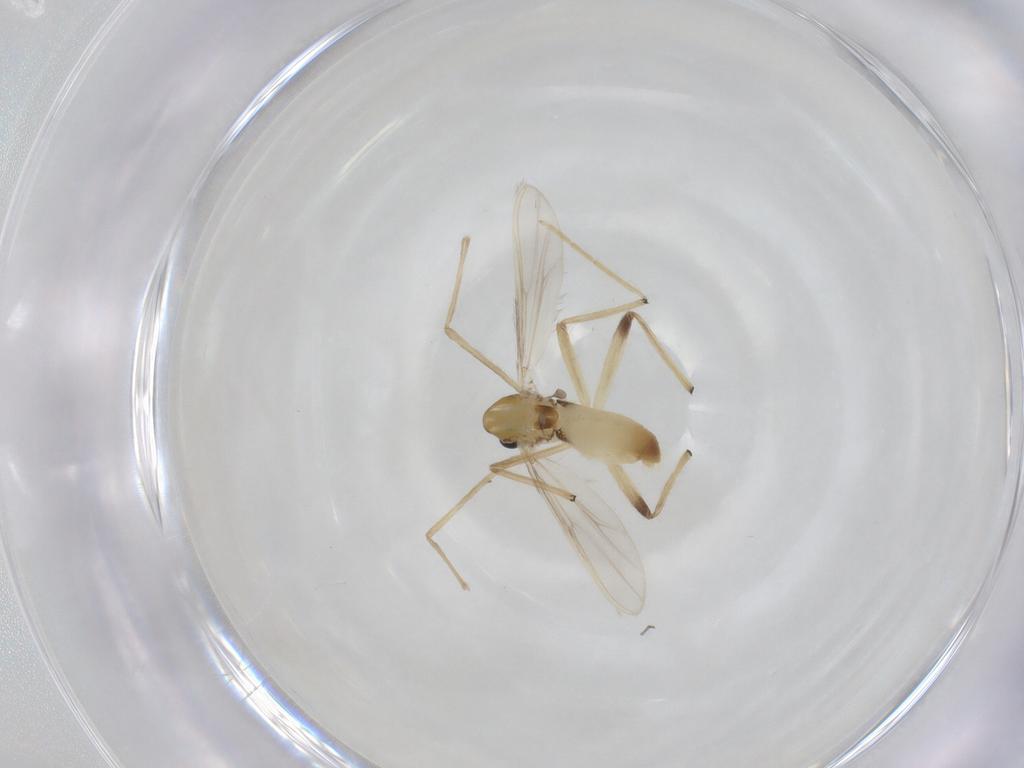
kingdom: Animalia
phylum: Arthropoda
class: Insecta
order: Diptera
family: Chironomidae
